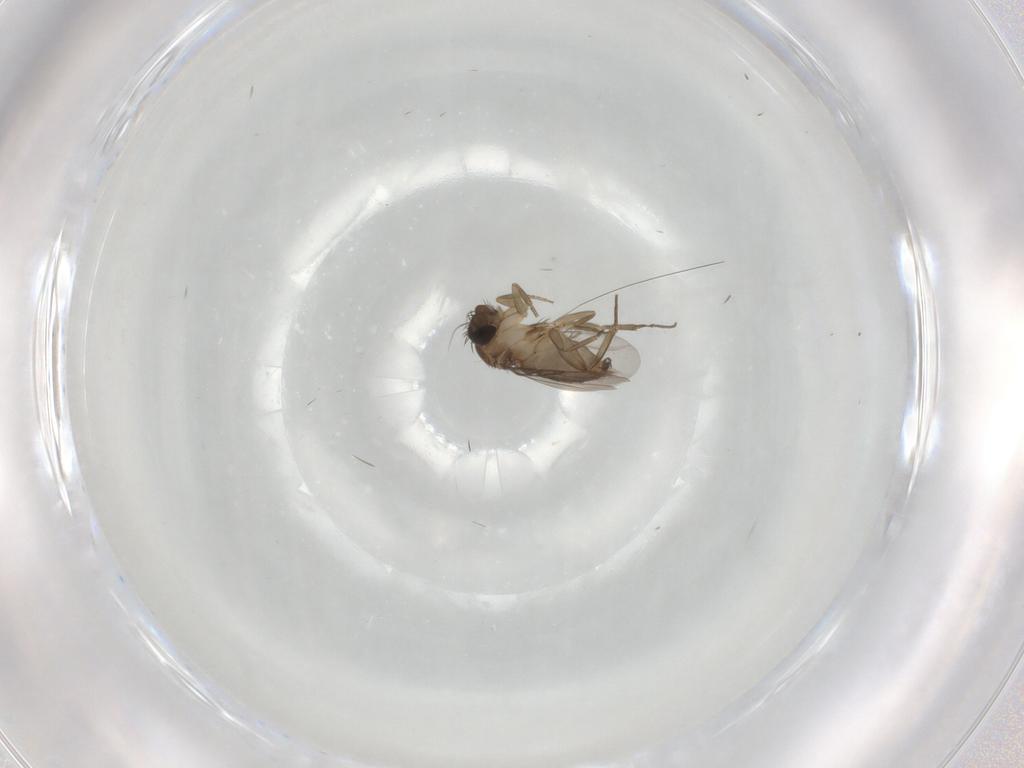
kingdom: Animalia
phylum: Arthropoda
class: Insecta
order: Diptera
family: Phoridae
